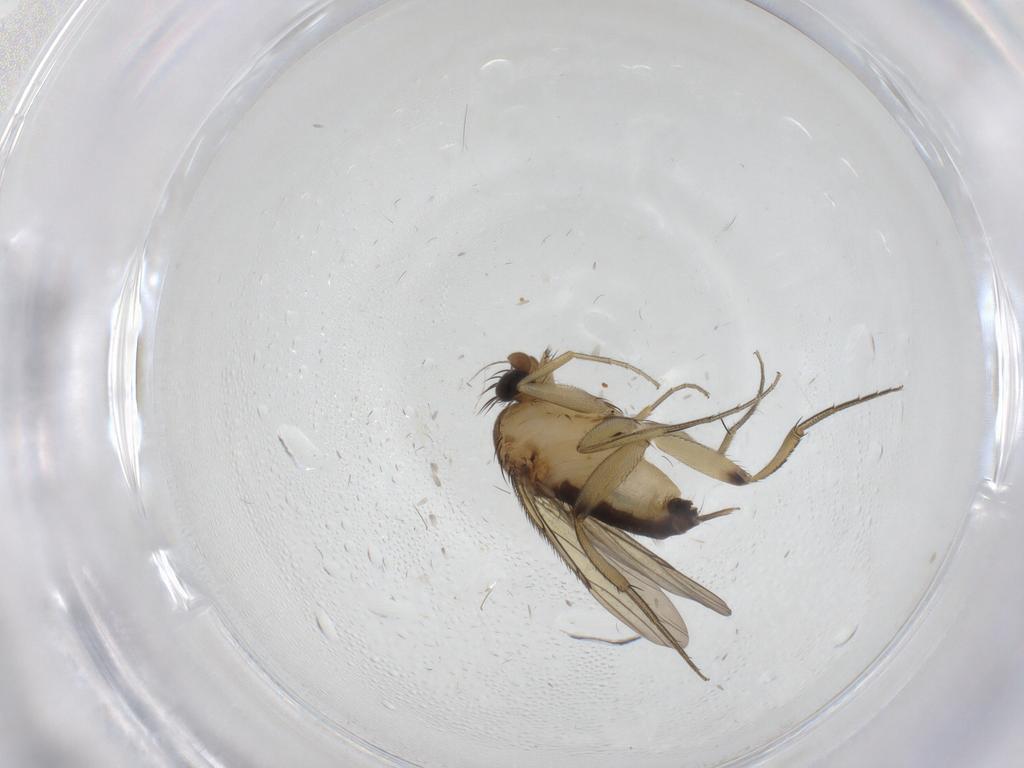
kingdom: Animalia
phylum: Arthropoda
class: Insecta
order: Diptera
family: Phoridae
